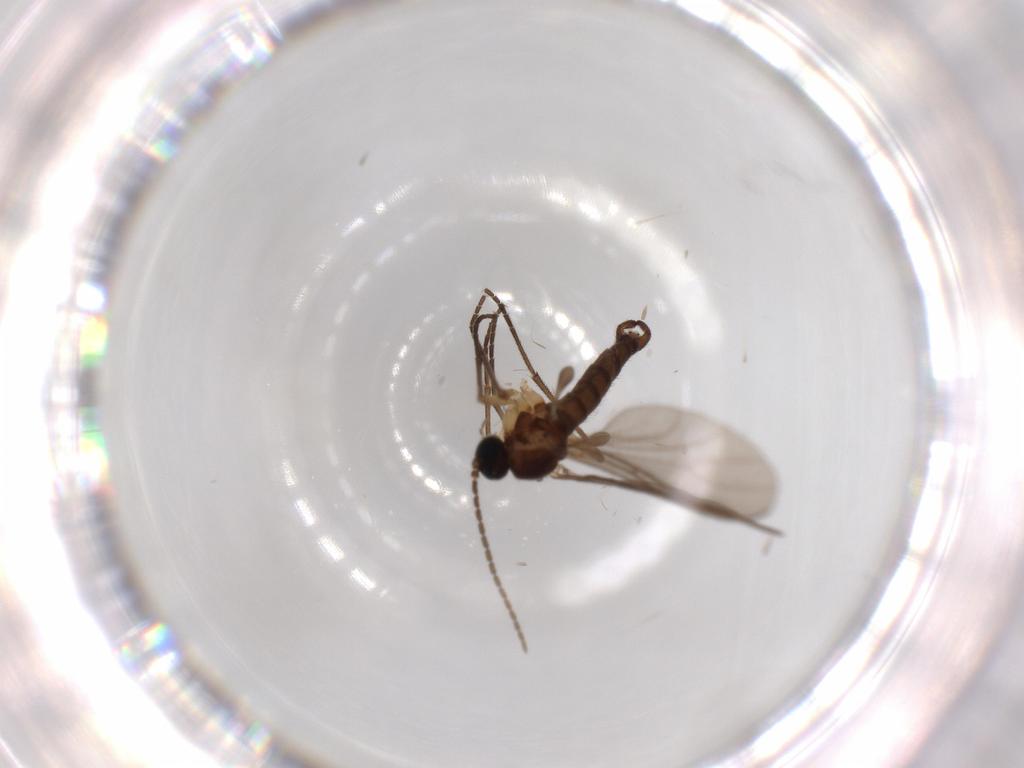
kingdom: Animalia
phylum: Arthropoda
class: Insecta
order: Diptera
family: Sciaridae
